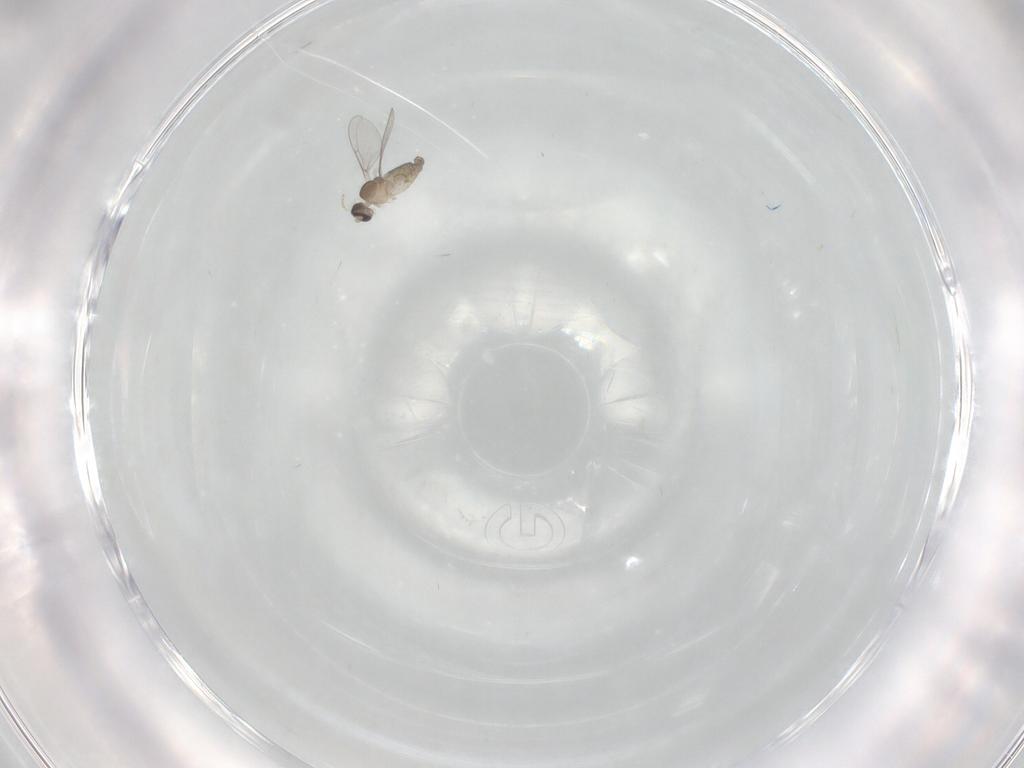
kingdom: Animalia
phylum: Arthropoda
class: Insecta
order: Diptera
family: Cecidomyiidae
